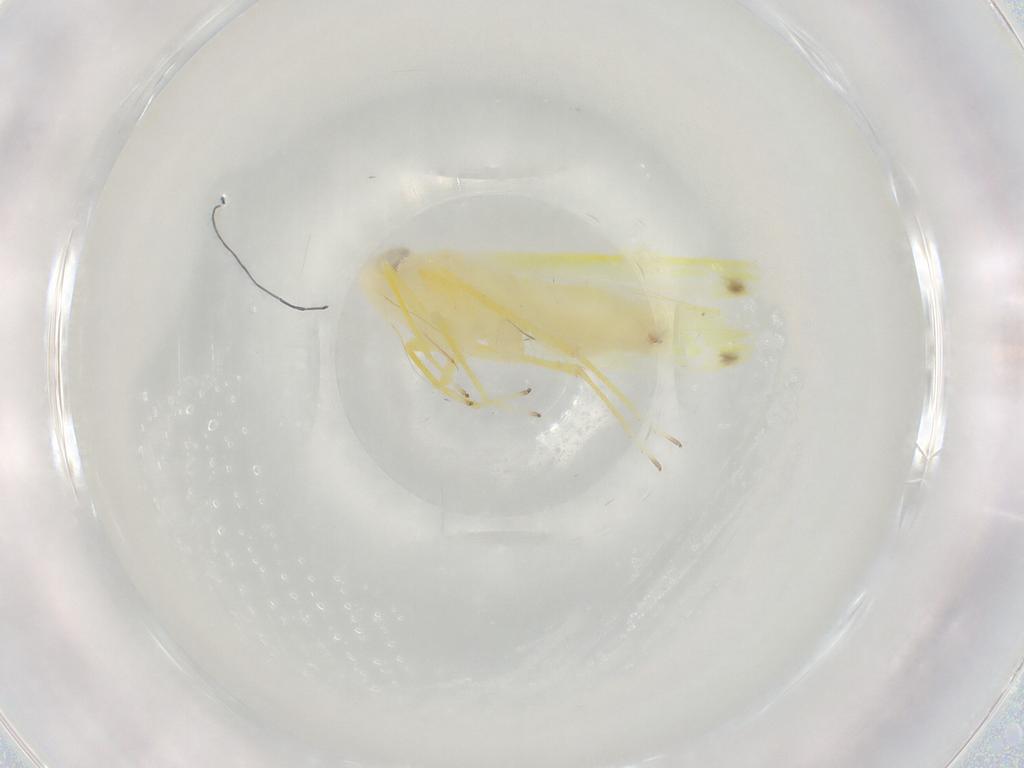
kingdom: Animalia
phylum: Arthropoda
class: Insecta
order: Hemiptera
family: Cicadellidae
